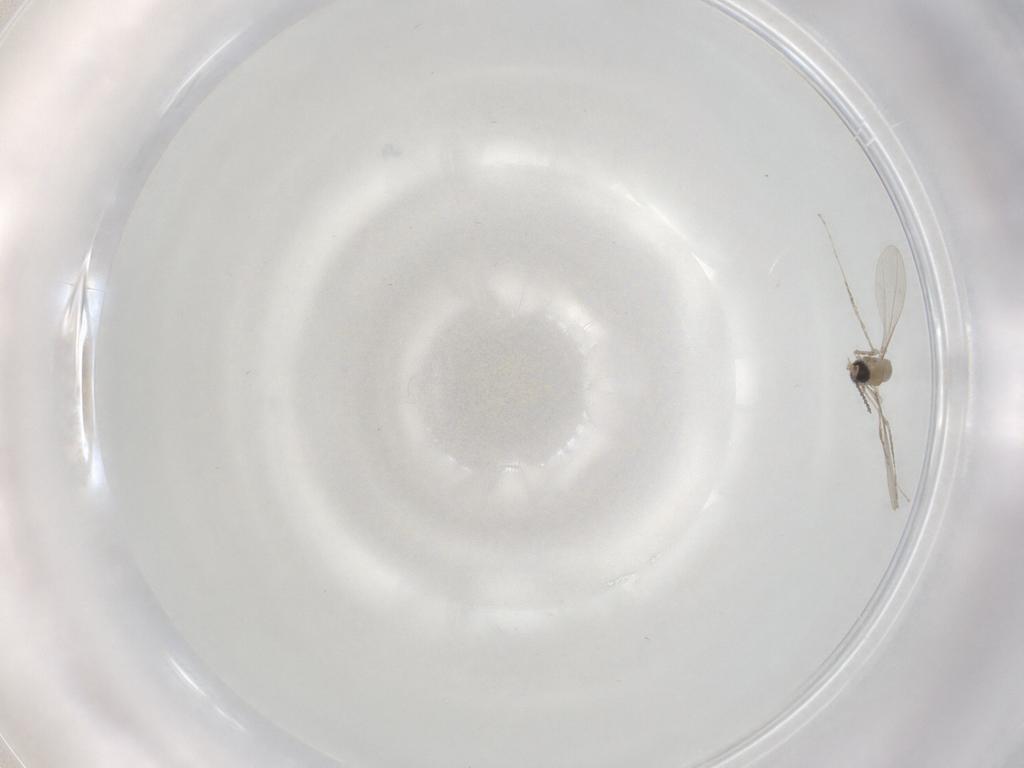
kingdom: Animalia
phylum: Arthropoda
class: Insecta
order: Diptera
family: Cecidomyiidae
